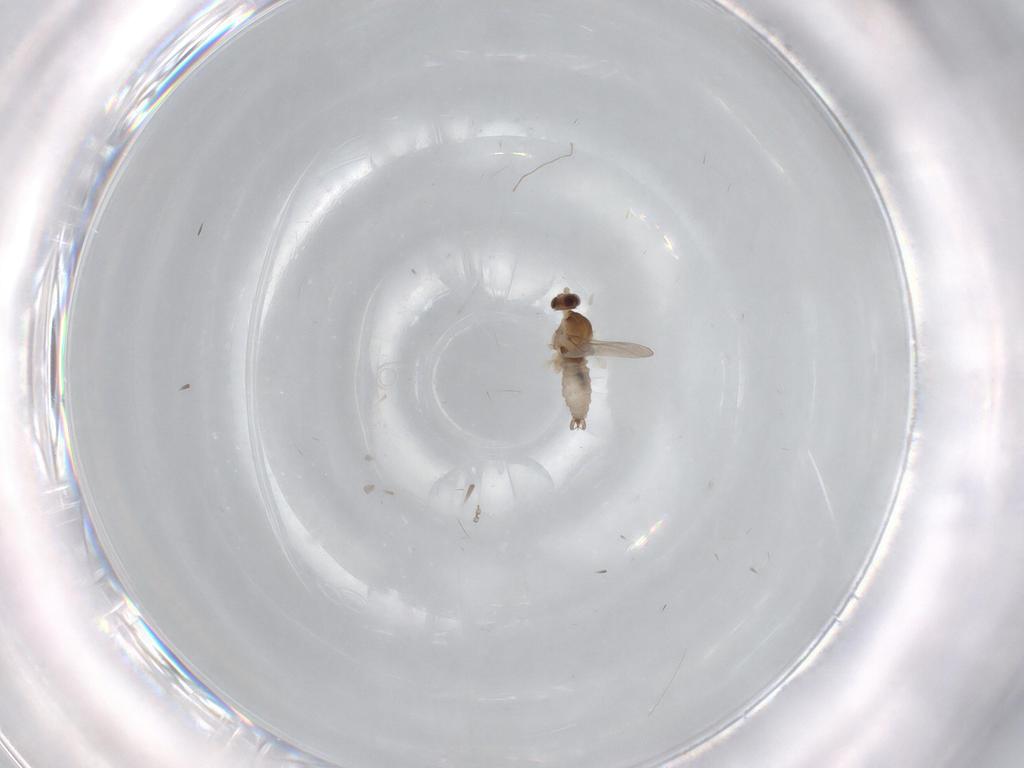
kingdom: Animalia
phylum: Arthropoda
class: Insecta
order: Diptera
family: Cecidomyiidae
